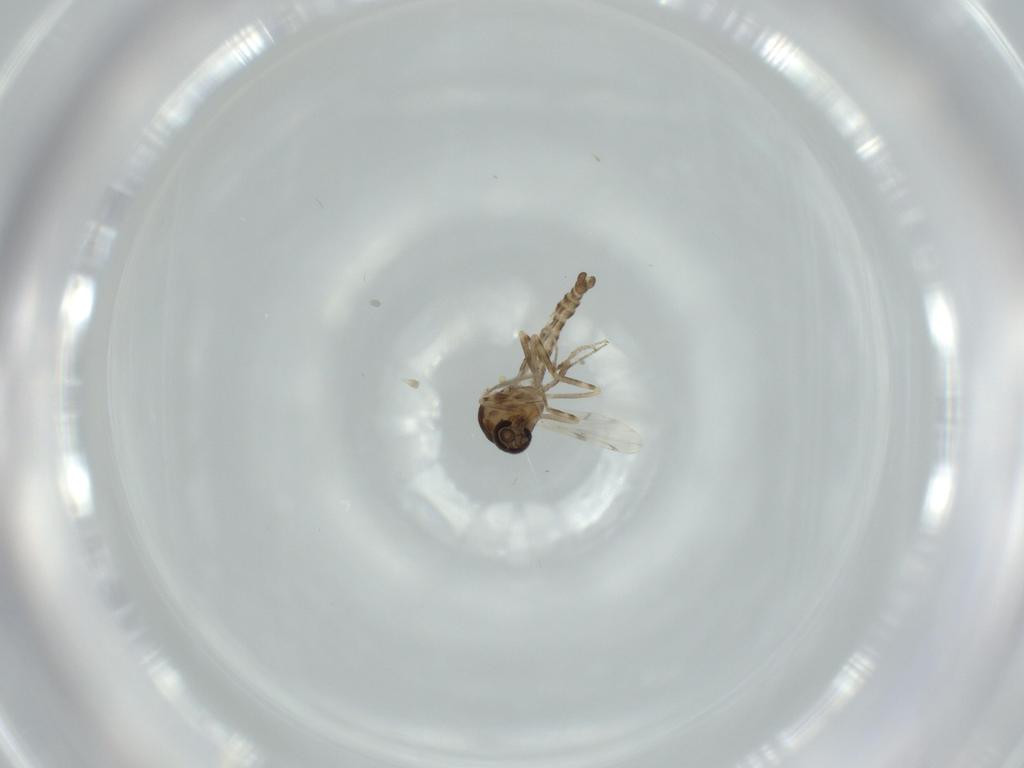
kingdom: Animalia
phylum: Arthropoda
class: Insecta
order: Diptera
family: Ceratopogonidae
